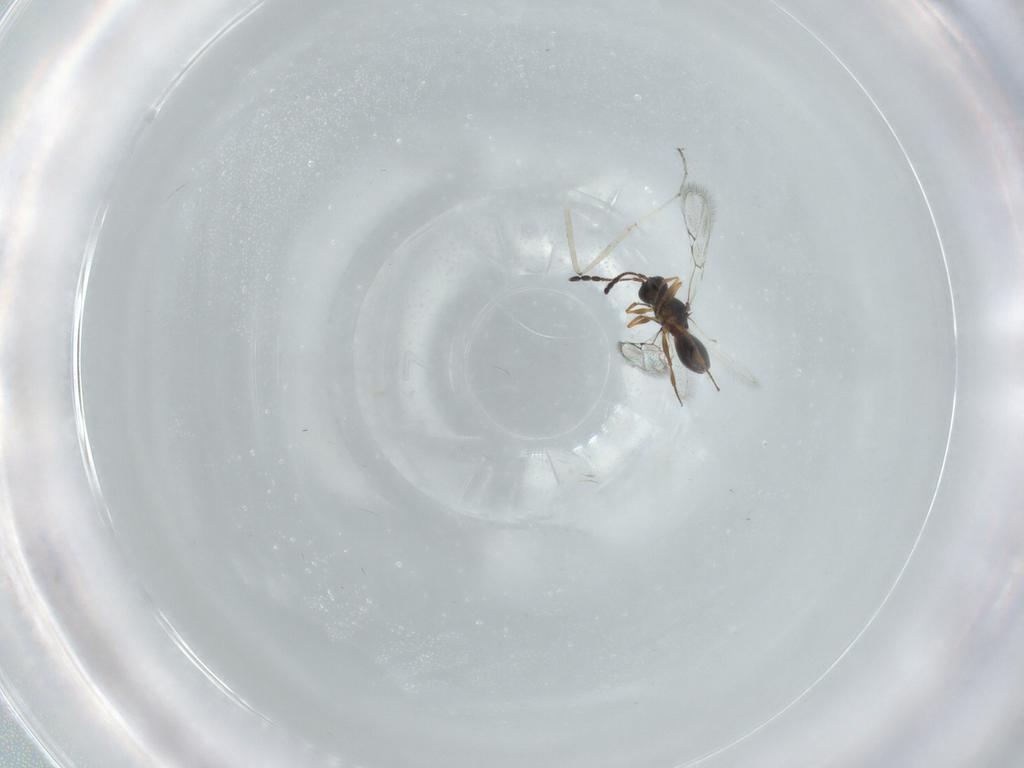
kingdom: Animalia
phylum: Arthropoda
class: Insecta
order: Hymenoptera
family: Figitidae
